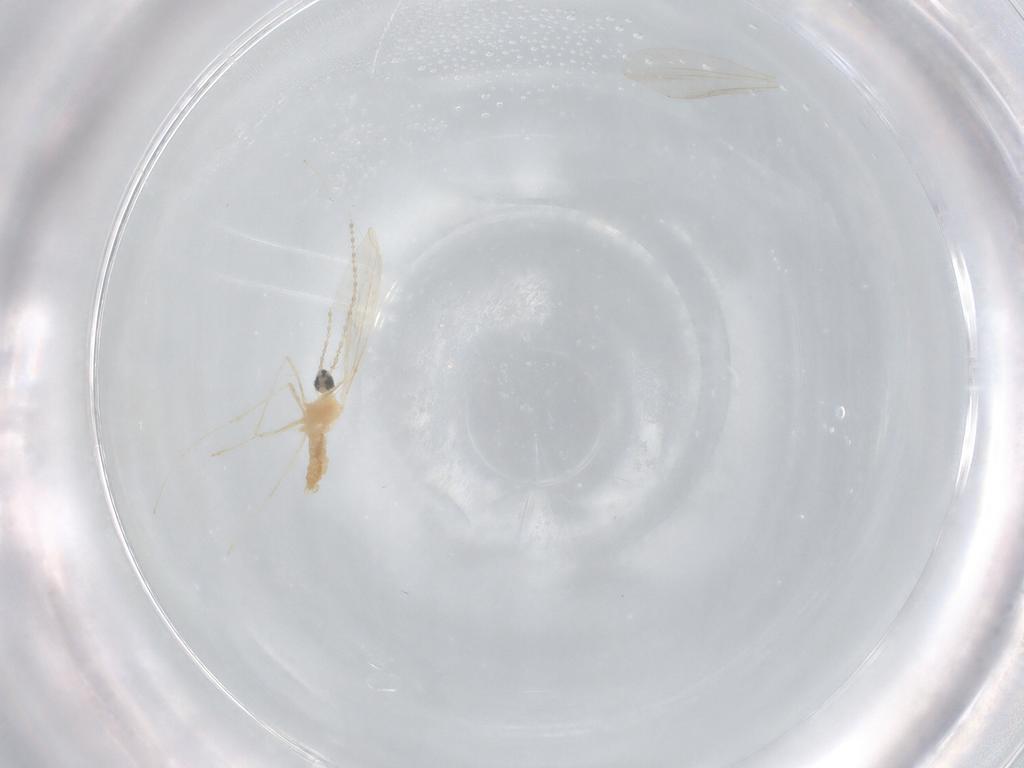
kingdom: Animalia
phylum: Arthropoda
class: Insecta
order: Diptera
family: Cecidomyiidae
